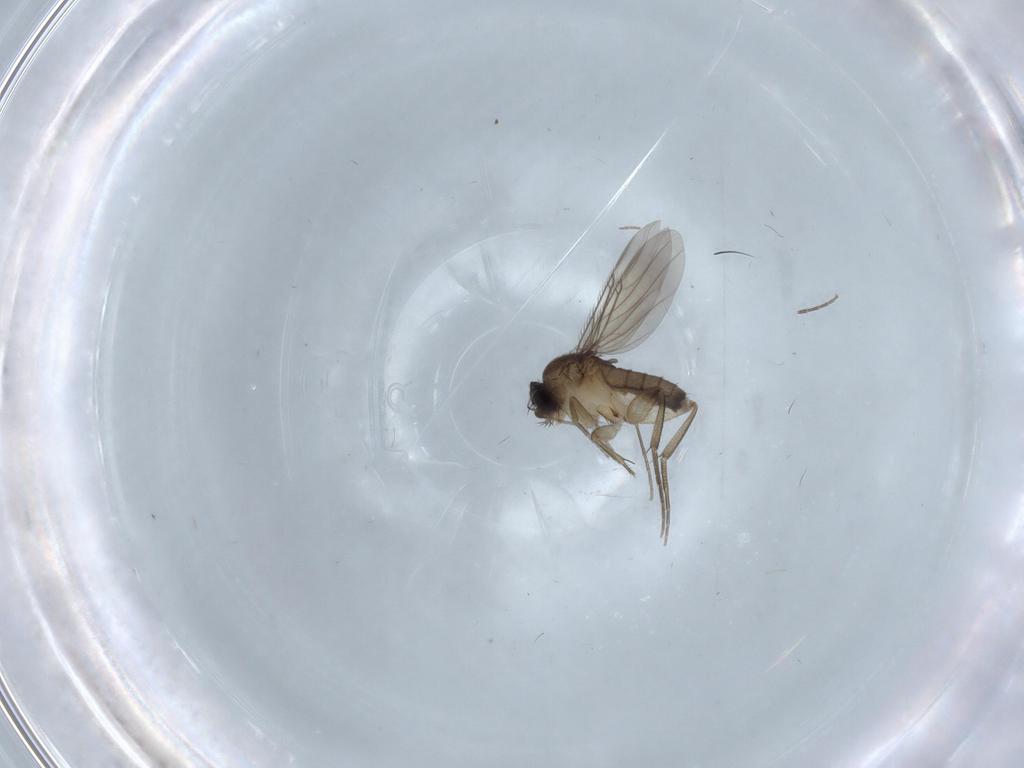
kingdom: Animalia
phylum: Arthropoda
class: Insecta
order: Diptera
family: Phoridae
